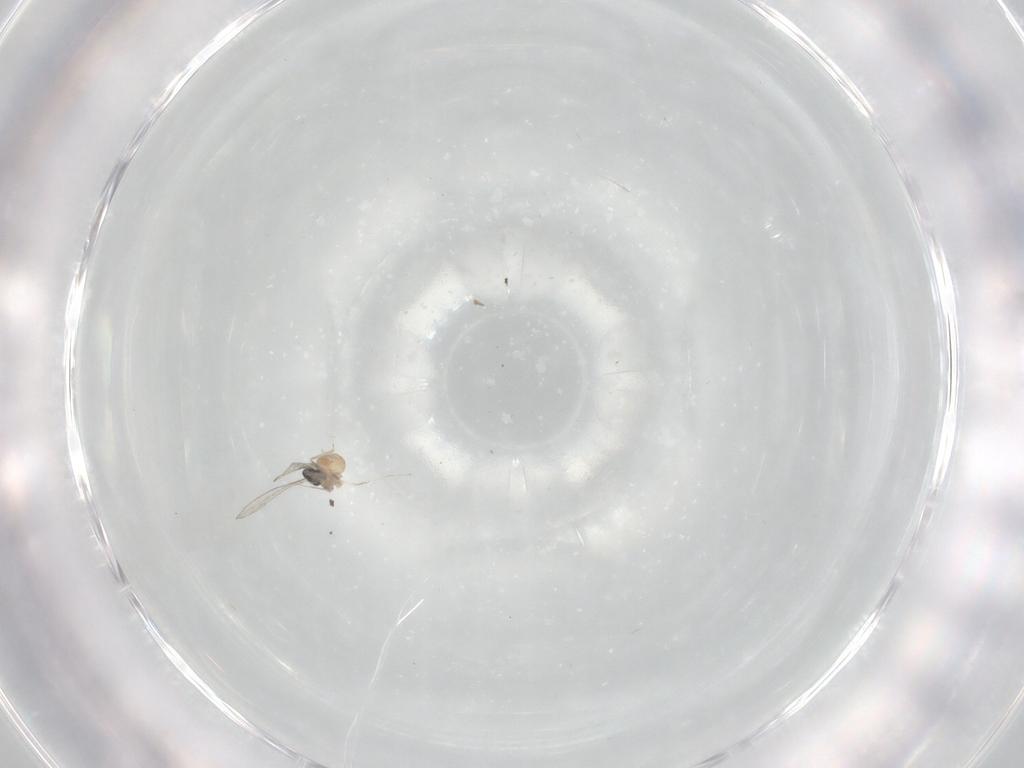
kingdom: Animalia
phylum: Arthropoda
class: Insecta
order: Diptera
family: Cecidomyiidae
